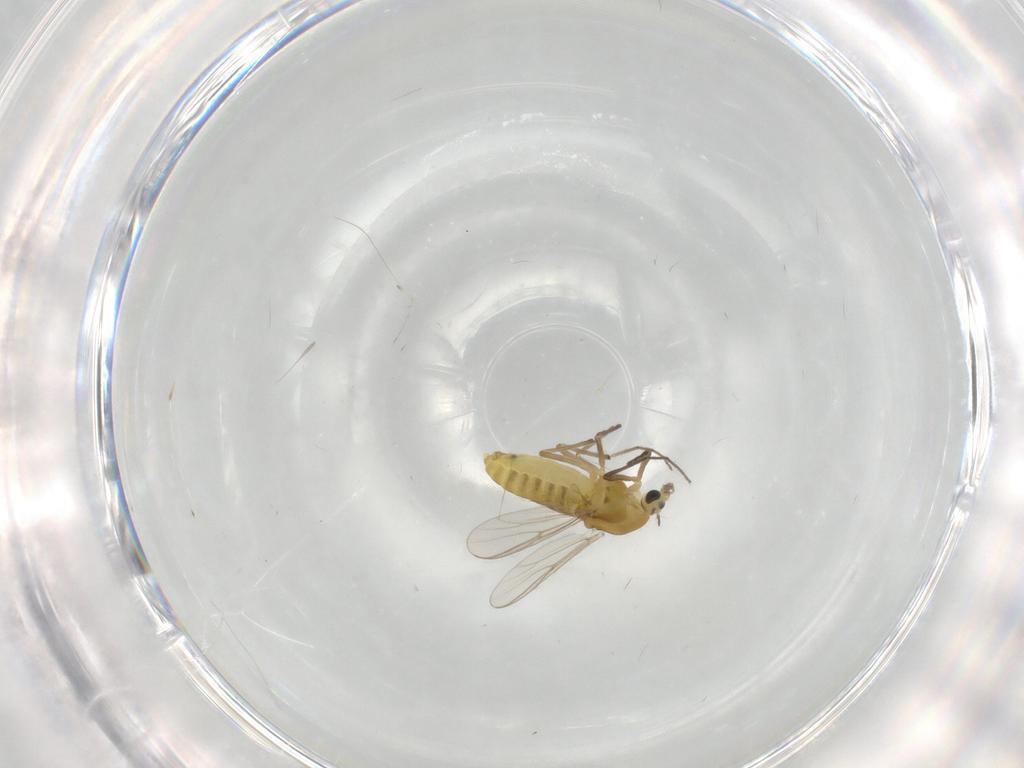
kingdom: Animalia
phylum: Arthropoda
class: Insecta
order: Diptera
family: Chironomidae
